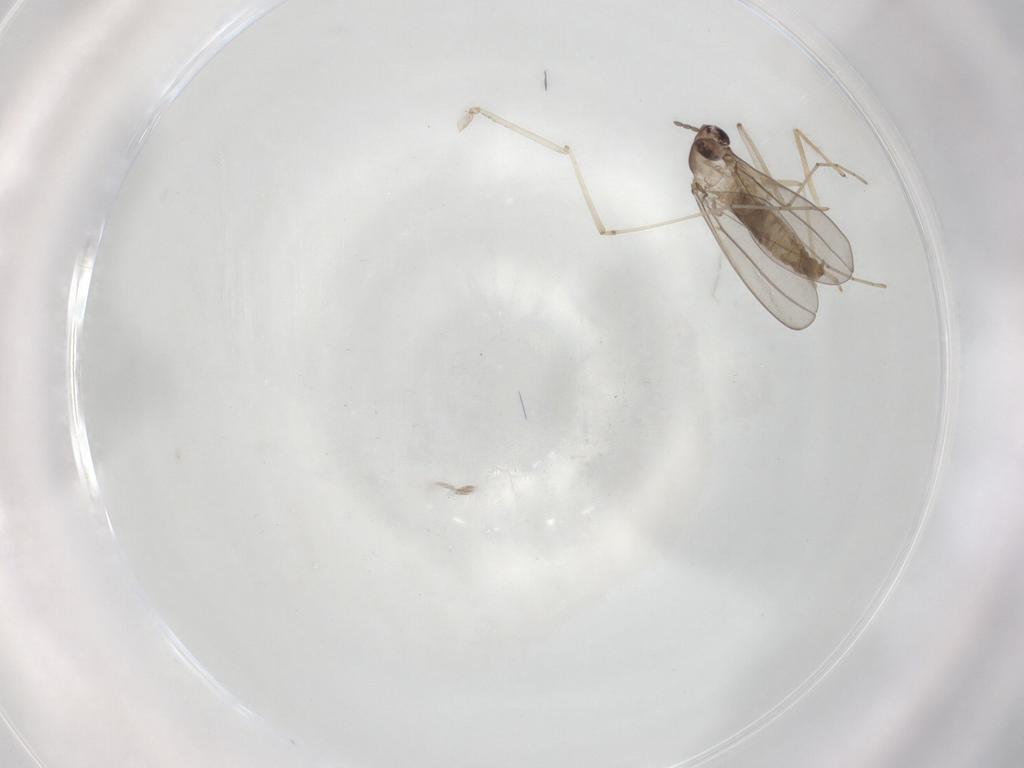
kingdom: Animalia
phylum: Arthropoda
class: Insecta
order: Diptera
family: Chironomidae
